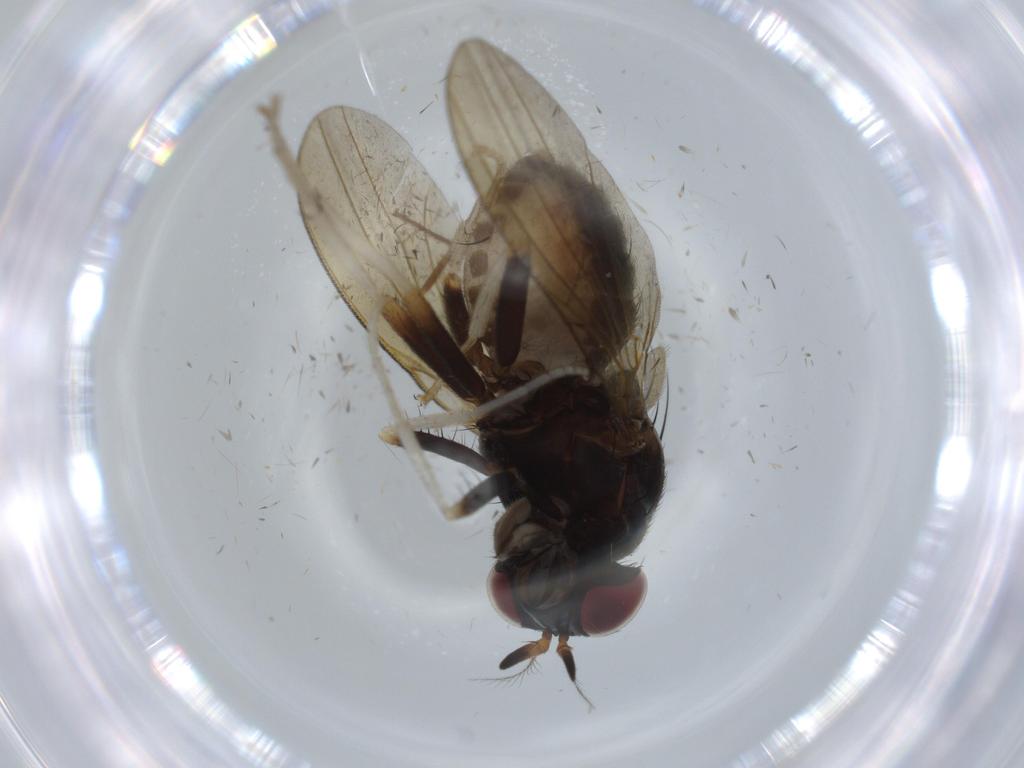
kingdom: Animalia
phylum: Arthropoda
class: Insecta
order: Diptera
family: Lauxaniidae
